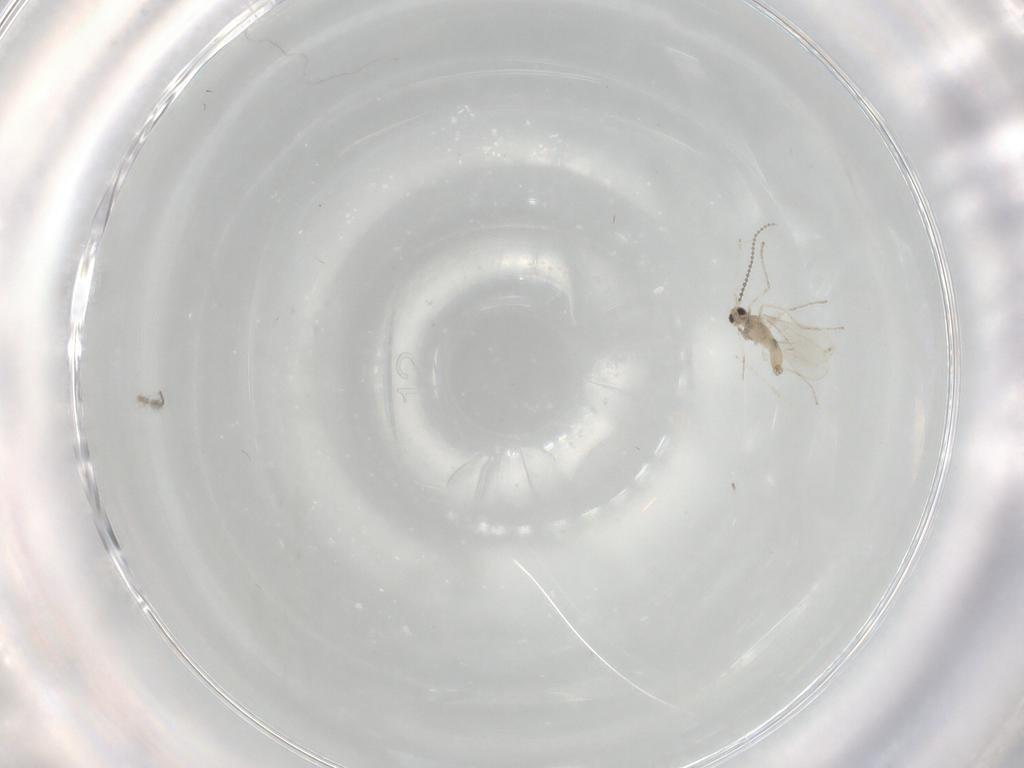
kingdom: Animalia
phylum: Arthropoda
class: Insecta
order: Diptera
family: Cecidomyiidae
